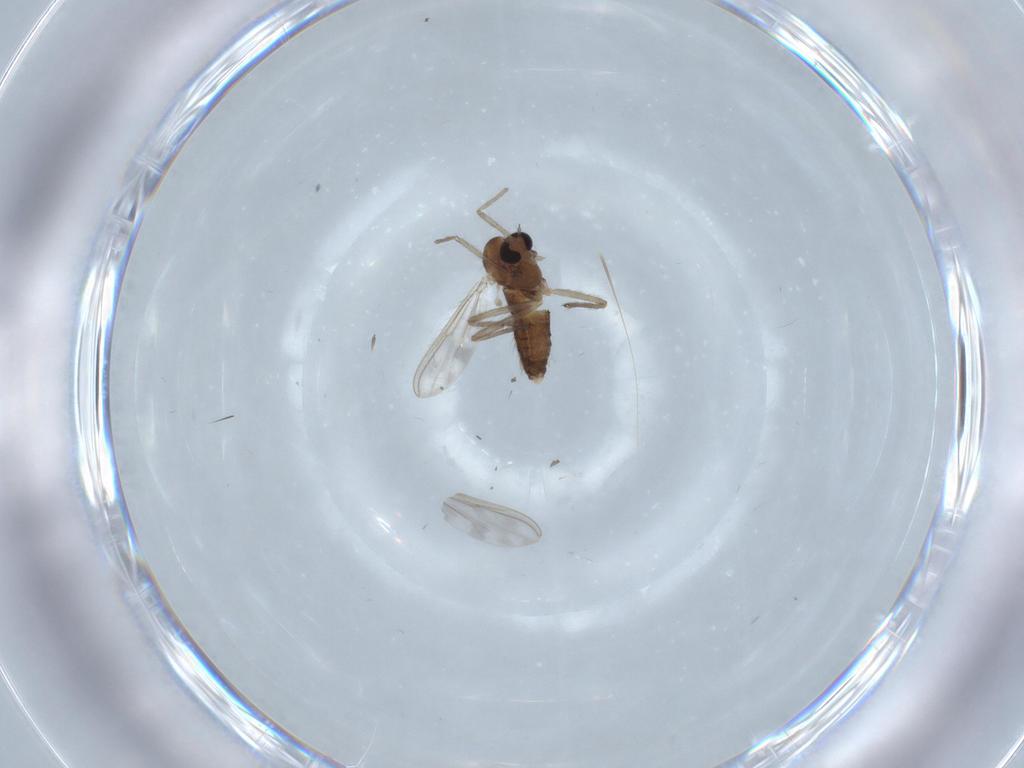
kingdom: Animalia
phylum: Arthropoda
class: Insecta
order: Diptera
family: Chironomidae
